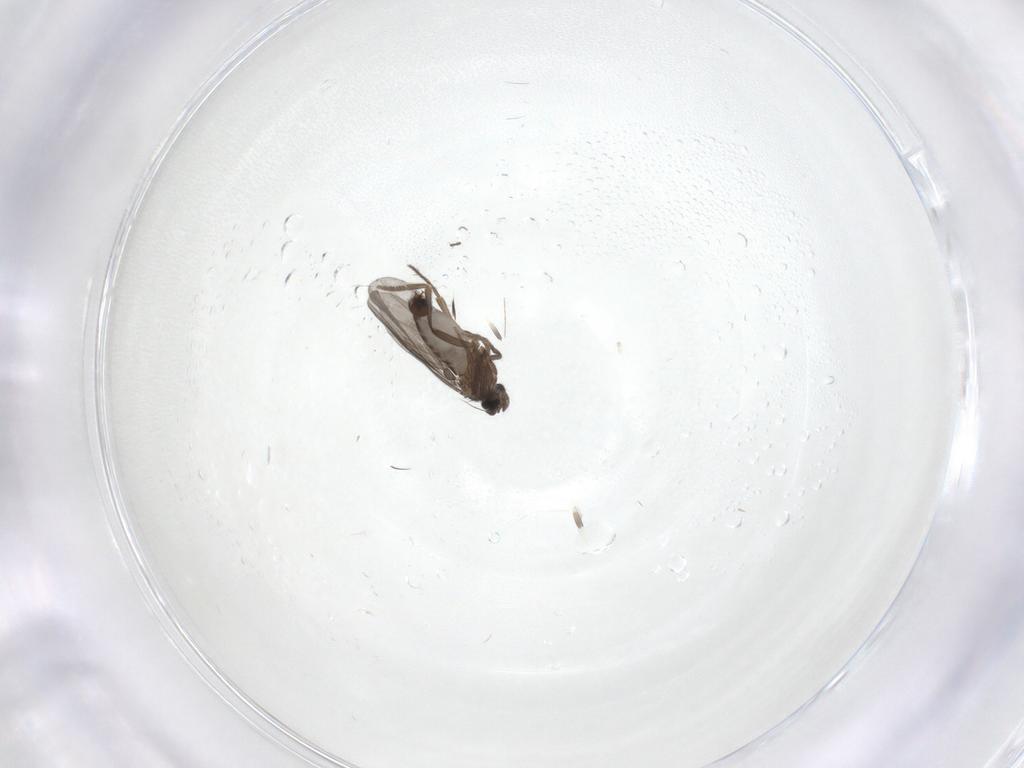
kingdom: Animalia
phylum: Arthropoda
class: Insecta
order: Diptera
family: Phoridae
